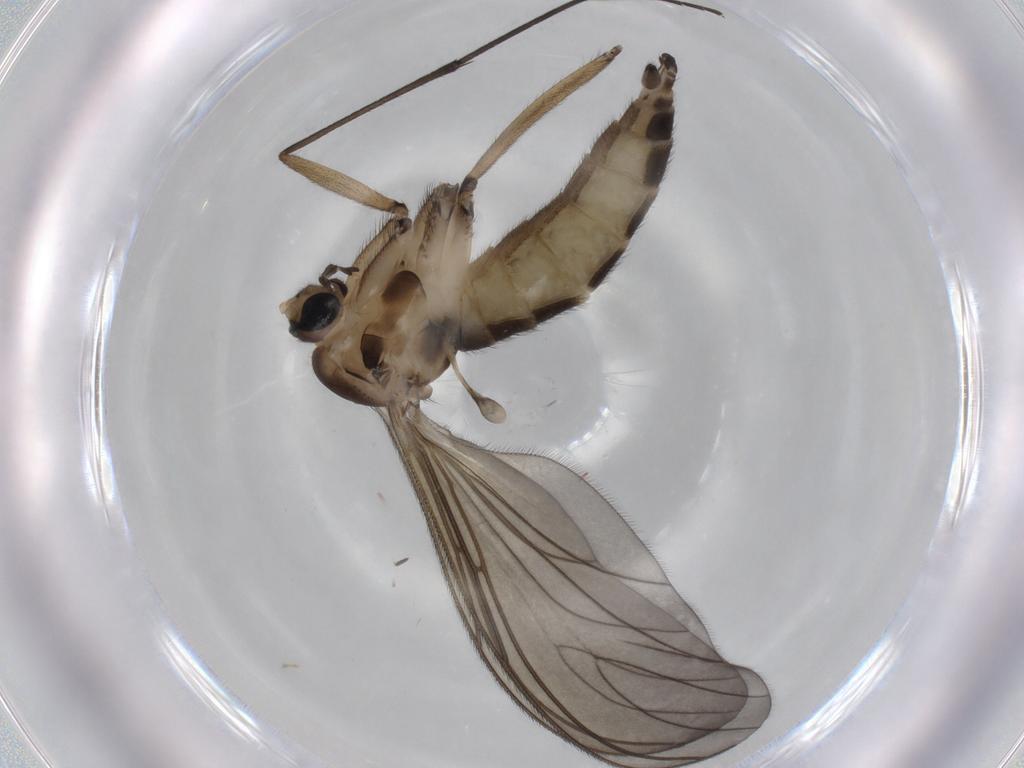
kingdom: Animalia
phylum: Arthropoda
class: Insecta
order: Diptera
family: Sciaridae
